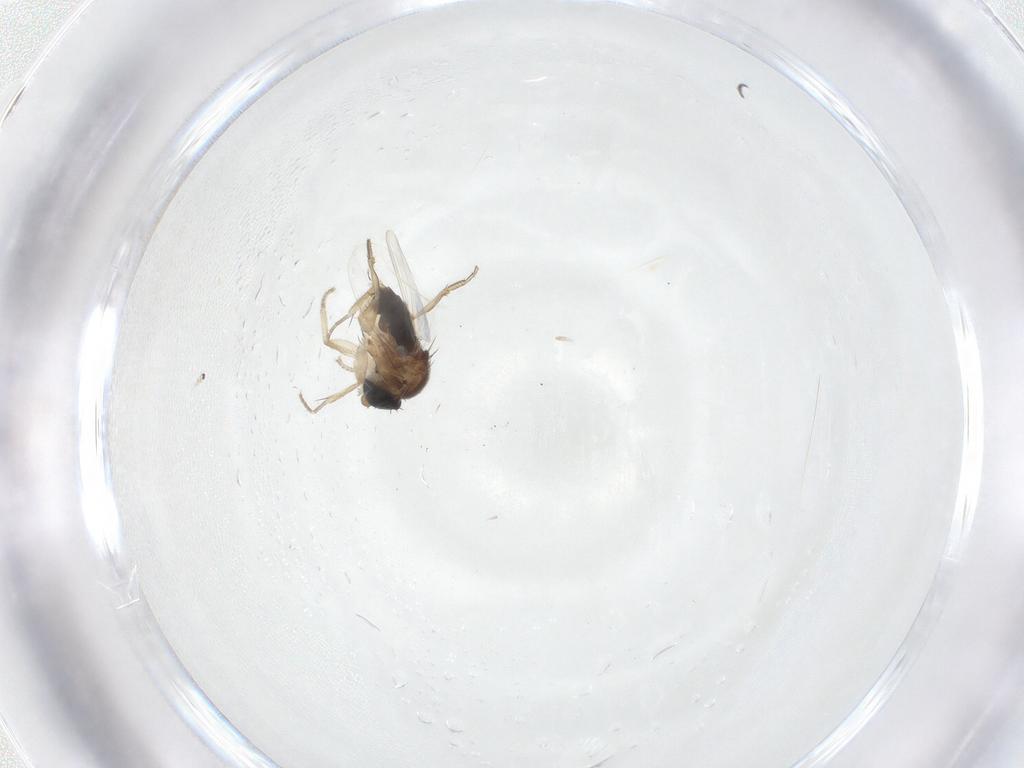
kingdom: Animalia
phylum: Arthropoda
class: Insecta
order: Diptera
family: Phoridae
